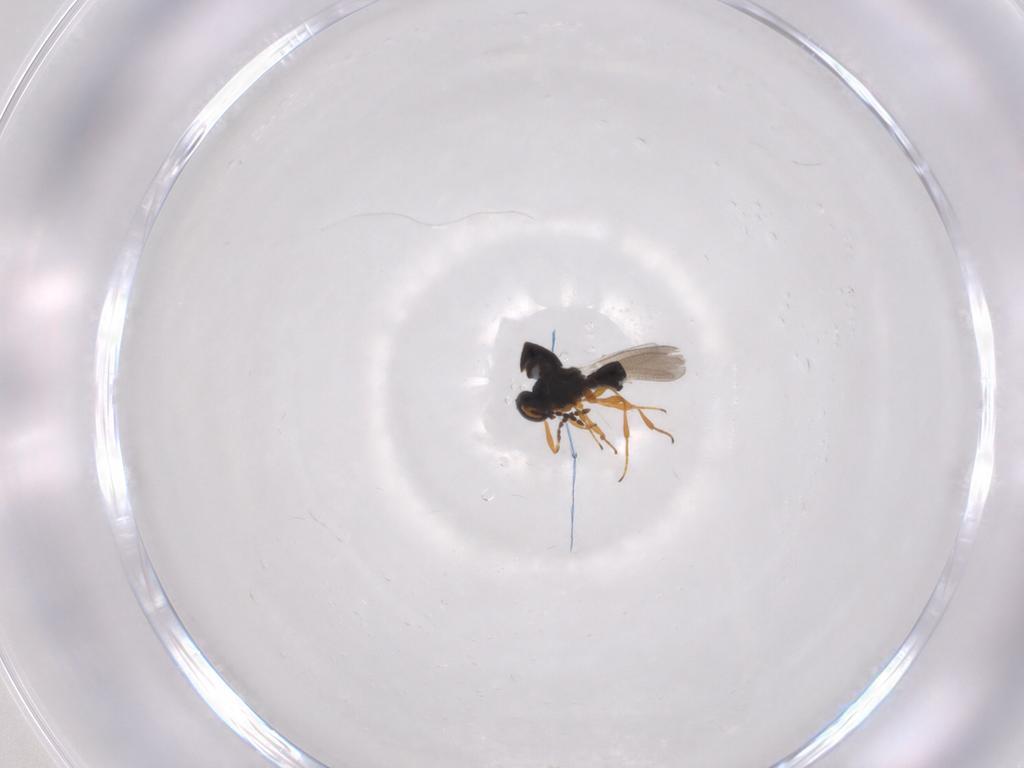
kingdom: Animalia
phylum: Arthropoda
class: Insecta
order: Hymenoptera
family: Platygastridae
